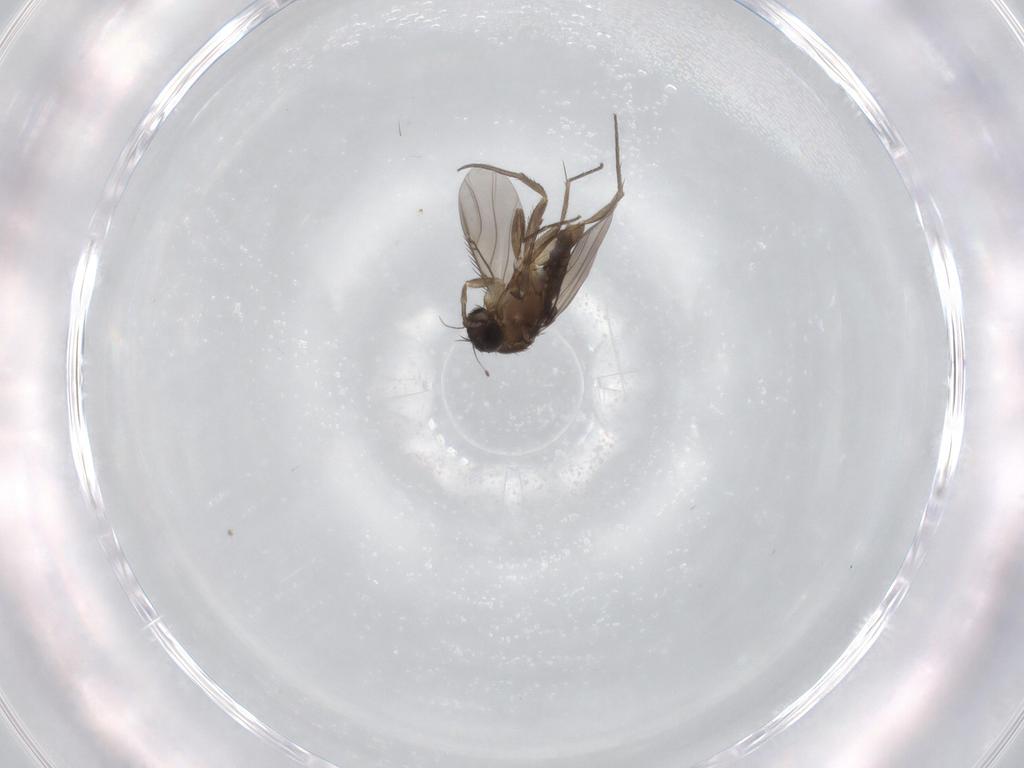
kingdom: Animalia
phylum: Arthropoda
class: Insecta
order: Diptera
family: Phoridae
